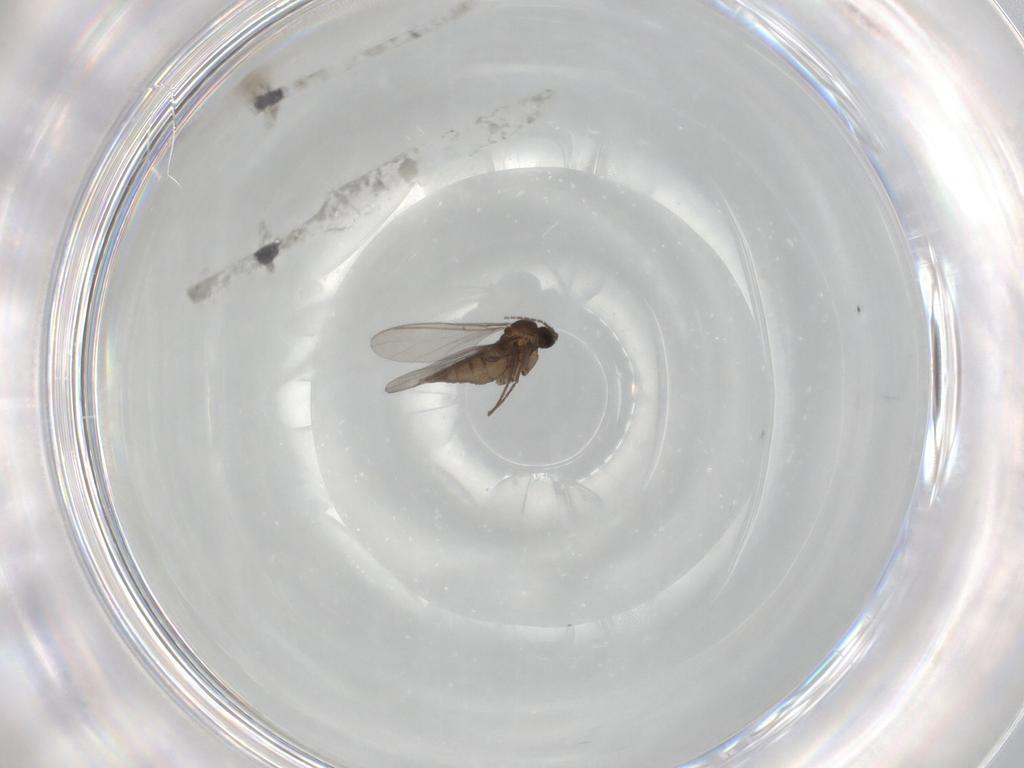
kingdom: Animalia
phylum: Arthropoda
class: Insecta
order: Diptera
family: Sciaridae
